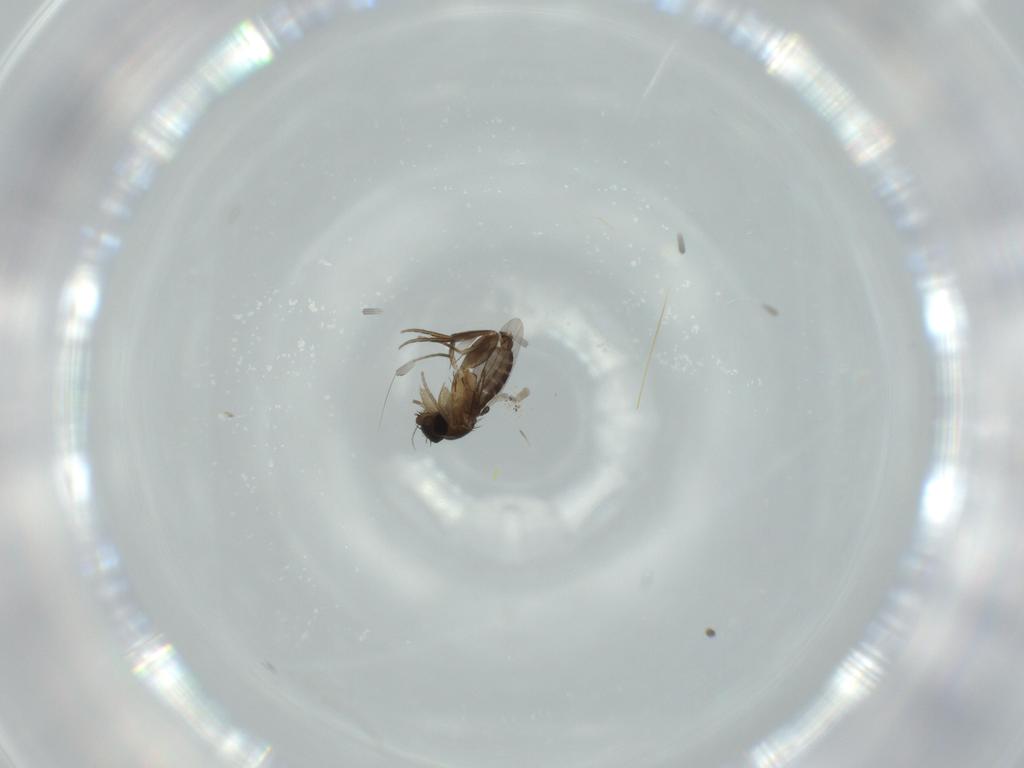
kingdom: Animalia
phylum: Arthropoda
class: Insecta
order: Diptera
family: Phoridae
